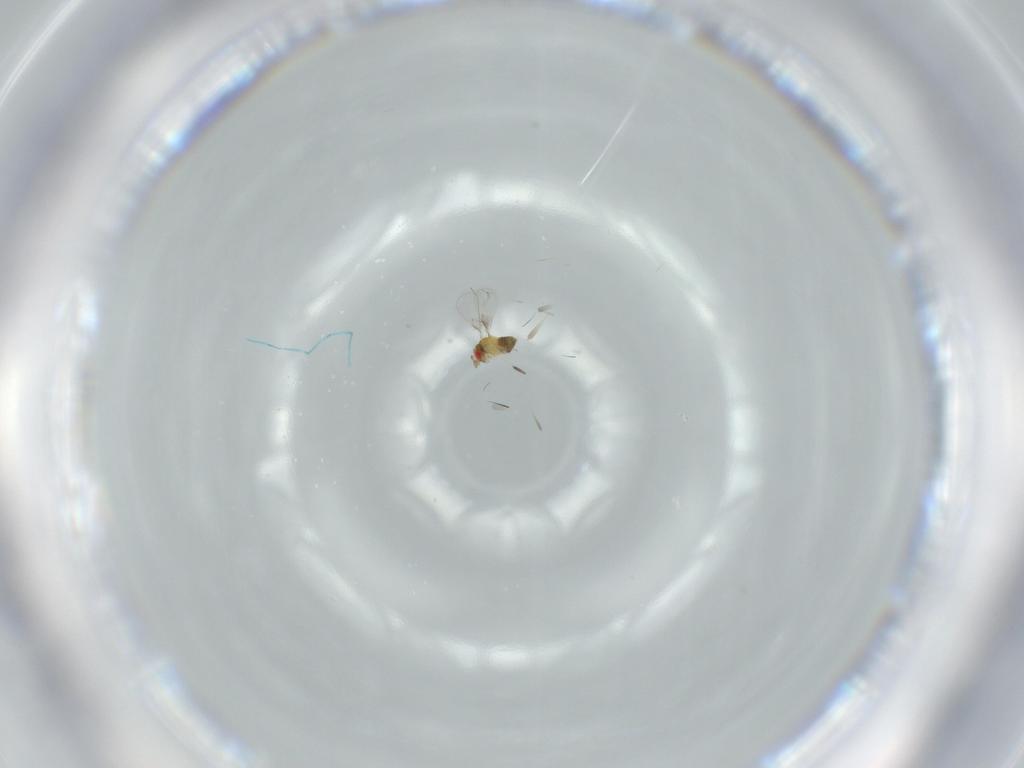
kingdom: Animalia
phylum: Arthropoda
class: Insecta
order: Hymenoptera
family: Trichogrammatidae
